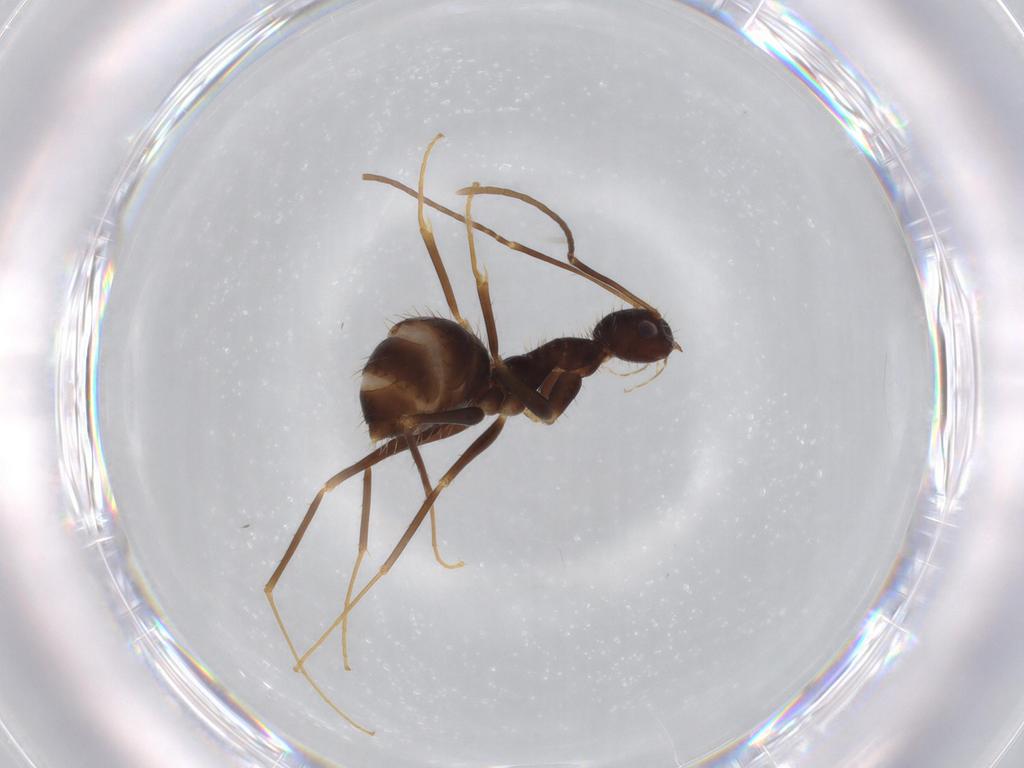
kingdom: Animalia
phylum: Arthropoda
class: Insecta
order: Hymenoptera
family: Formicidae
